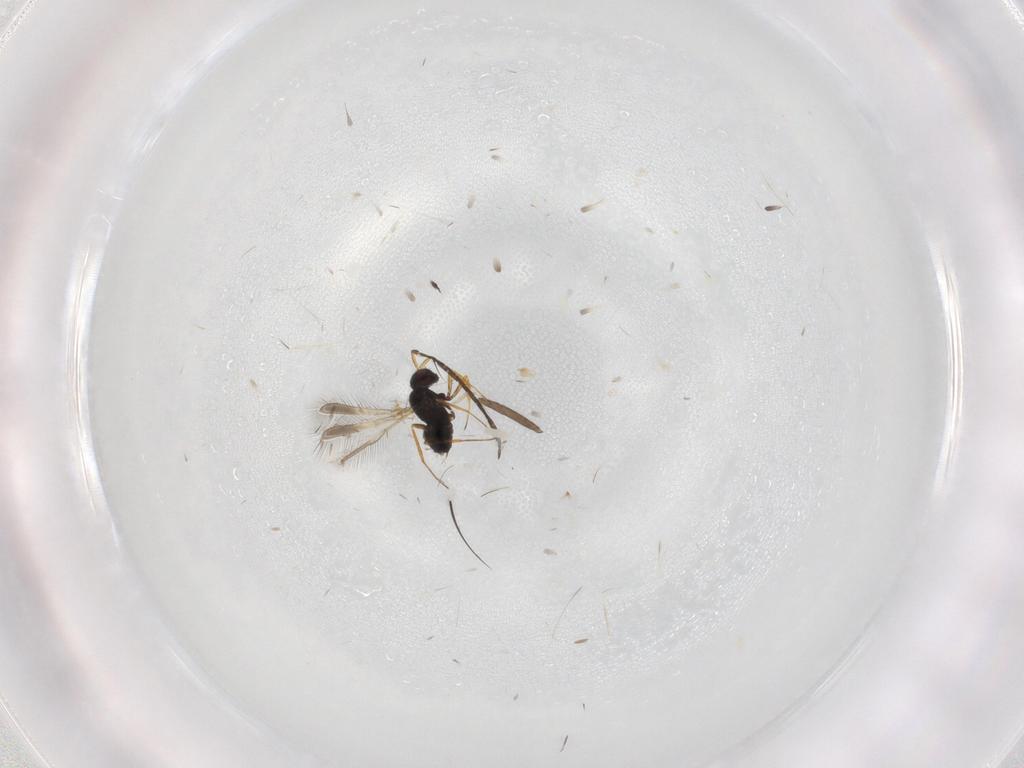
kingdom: Animalia
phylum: Arthropoda
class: Insecta
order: Hymenoptera
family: Mymaridae
